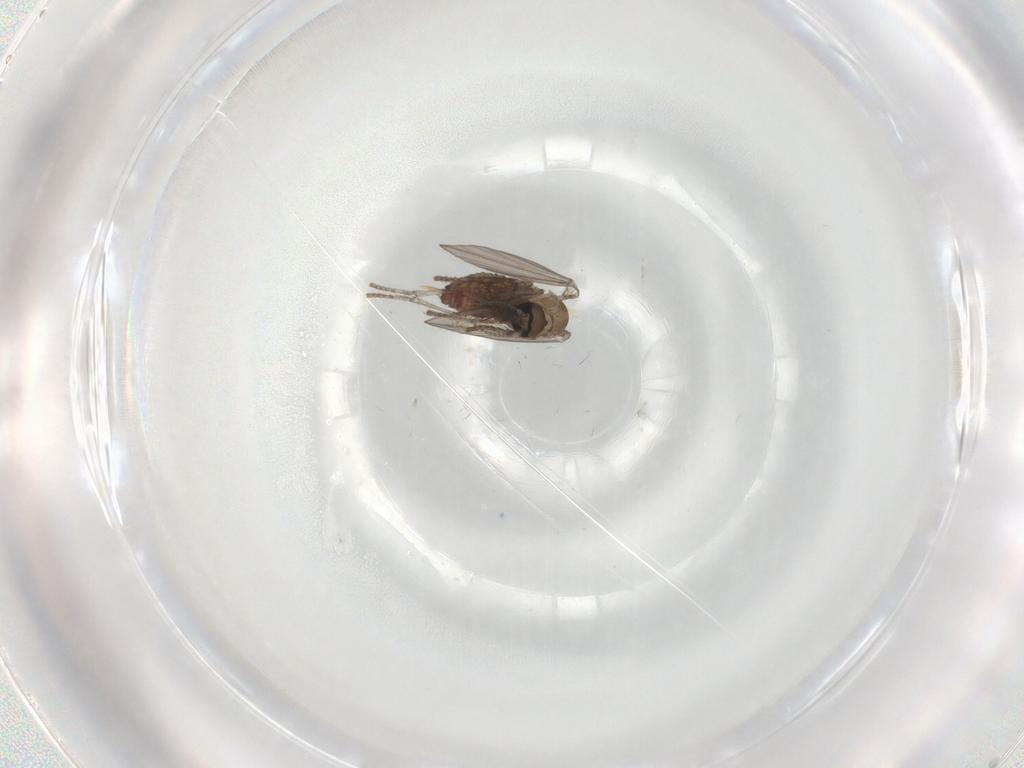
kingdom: Animalia
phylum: Arthropoda
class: Insecta
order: Diptera
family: Psychodidae
